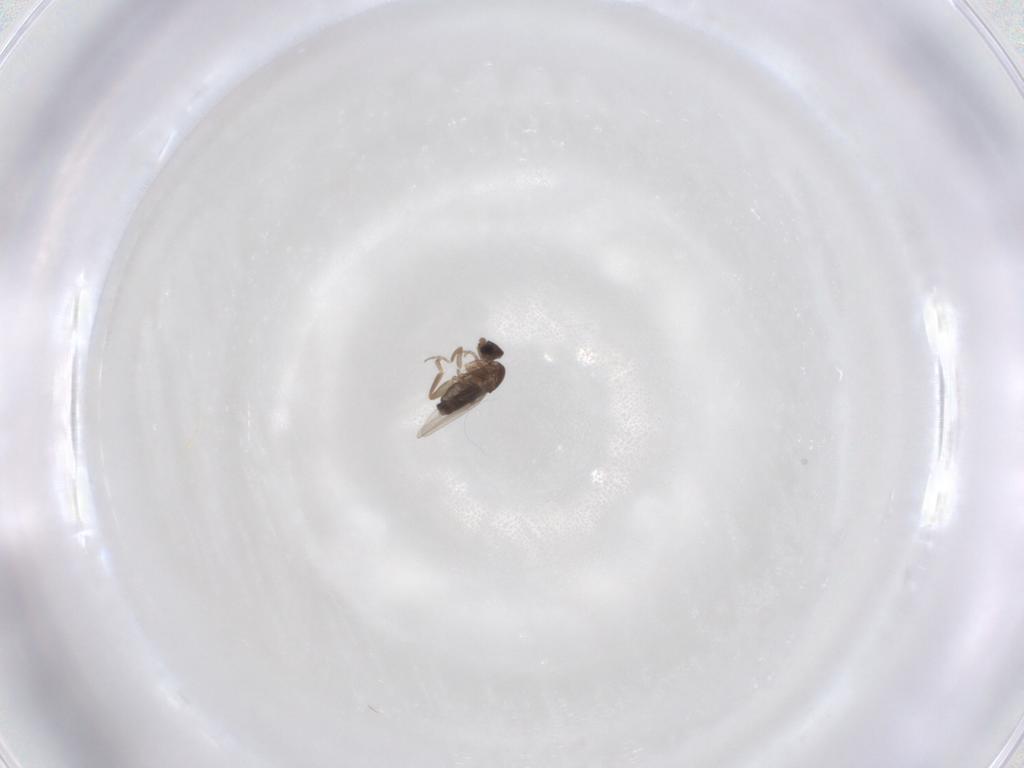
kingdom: Animalia
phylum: Arthropoda
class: Insecta
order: Diptera
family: Phoridae
